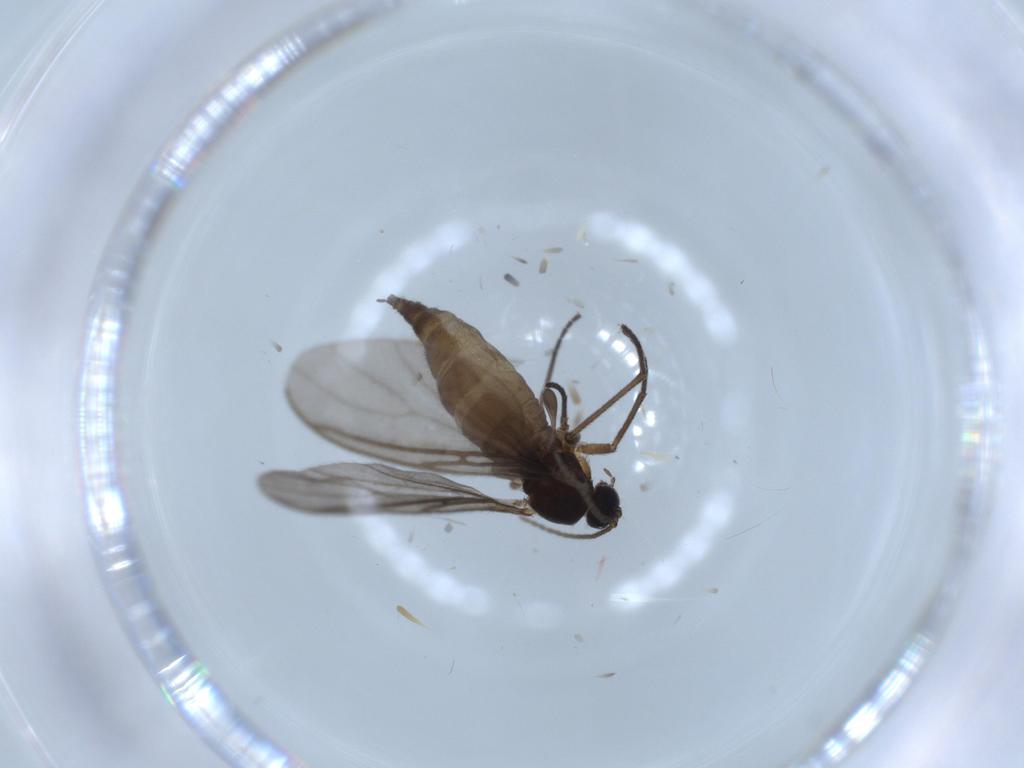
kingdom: Animalia
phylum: Arthropoda
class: Insecta
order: Diptera
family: Sciaridae
